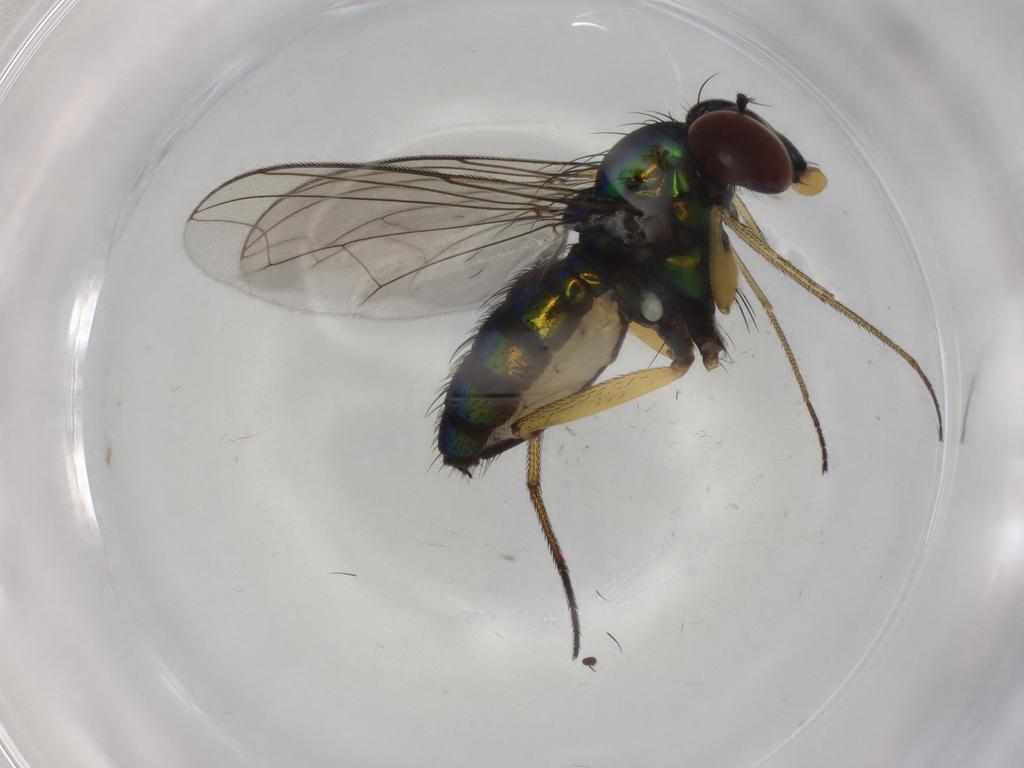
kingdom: Animalia
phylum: Arthropoda
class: Insecta
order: Diptera
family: Dolichopodidae
